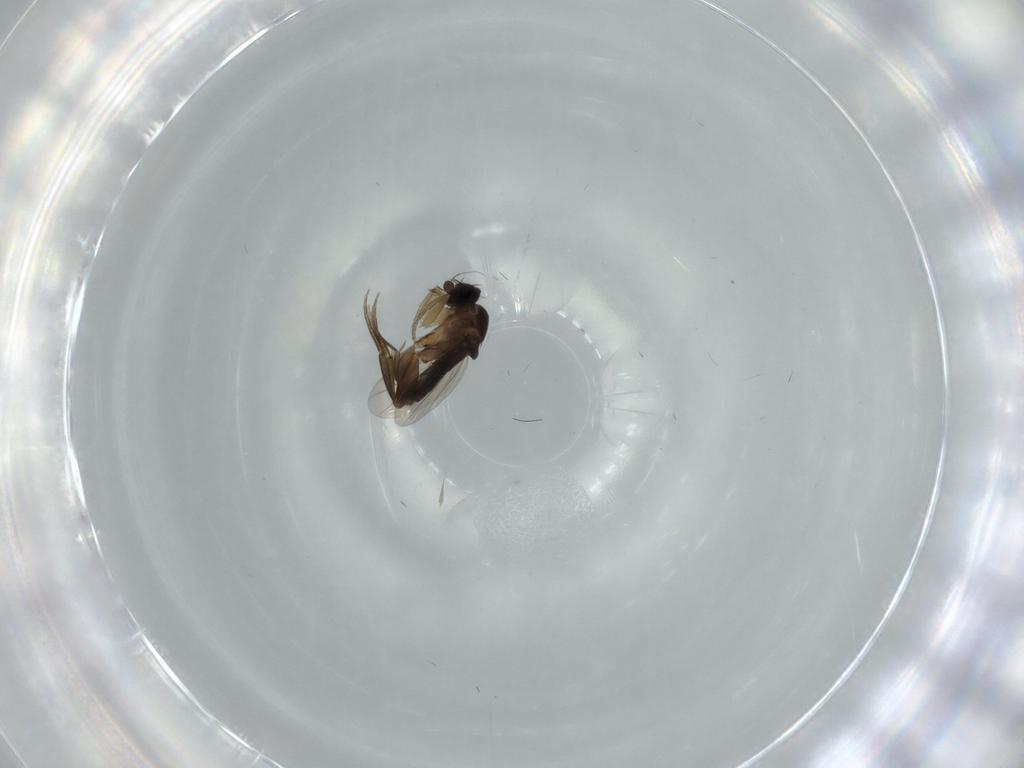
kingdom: Animalia
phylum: Arthropoda
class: Insecta
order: Diptera
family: Phoridae
